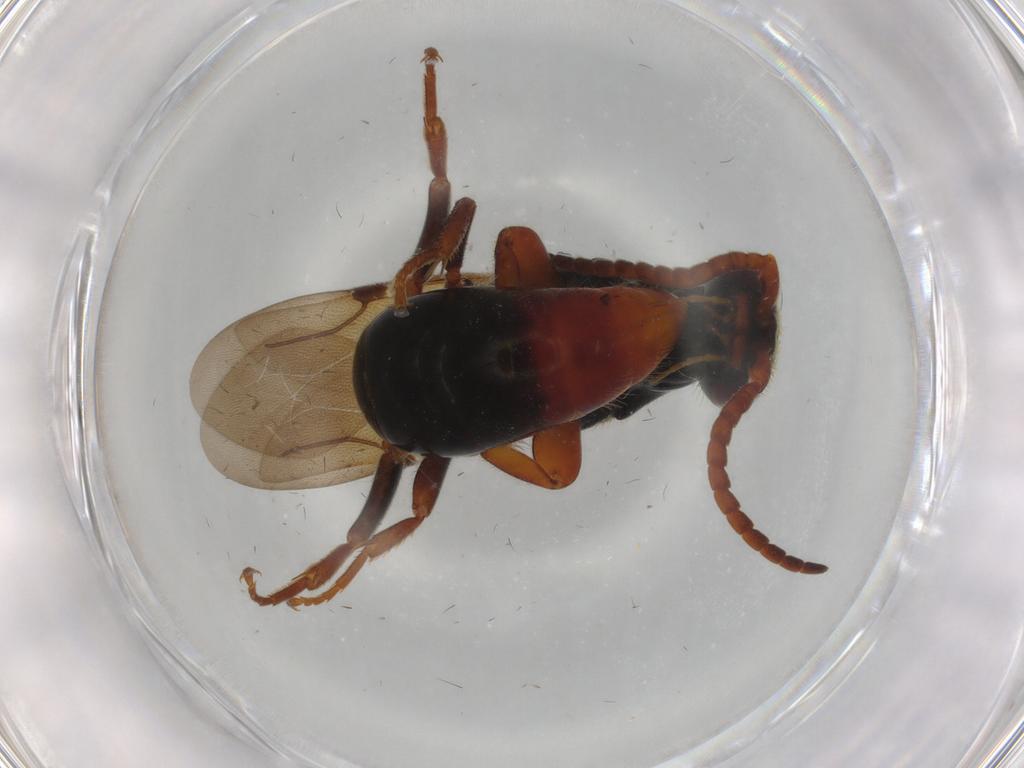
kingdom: Animalia
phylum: Arthropoda
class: Insecta
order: Hymenoptera
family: Bethylidae
